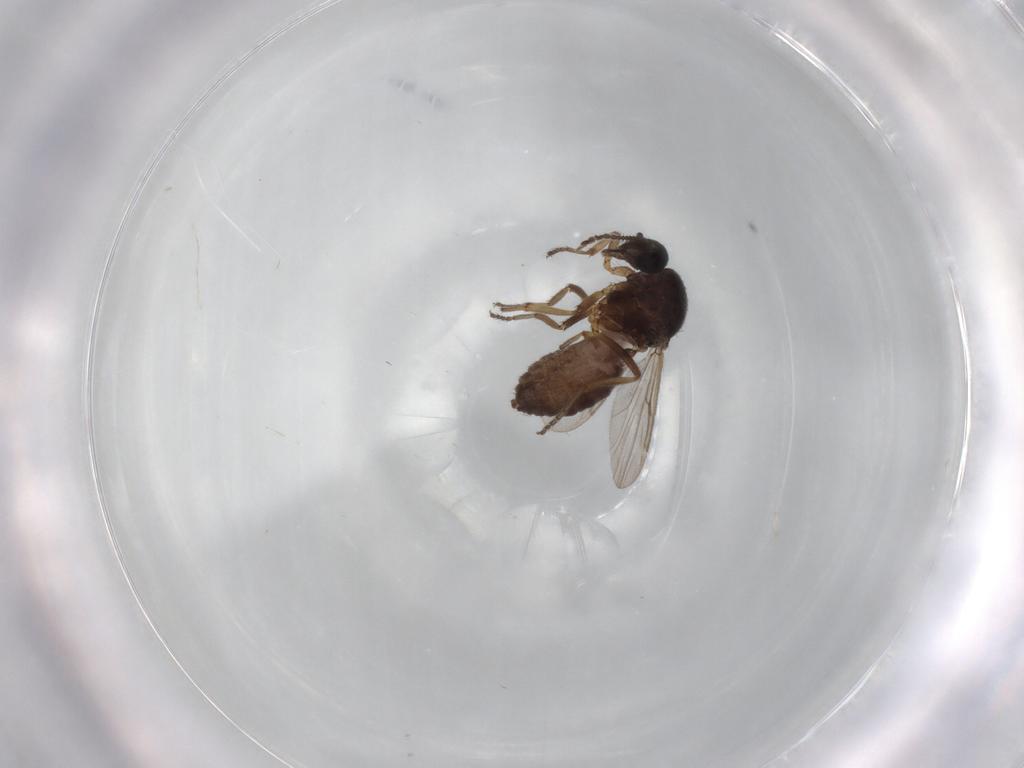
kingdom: Animalia
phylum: Arthropoda
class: Insecta
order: Diptera
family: Ceratopogonidae
